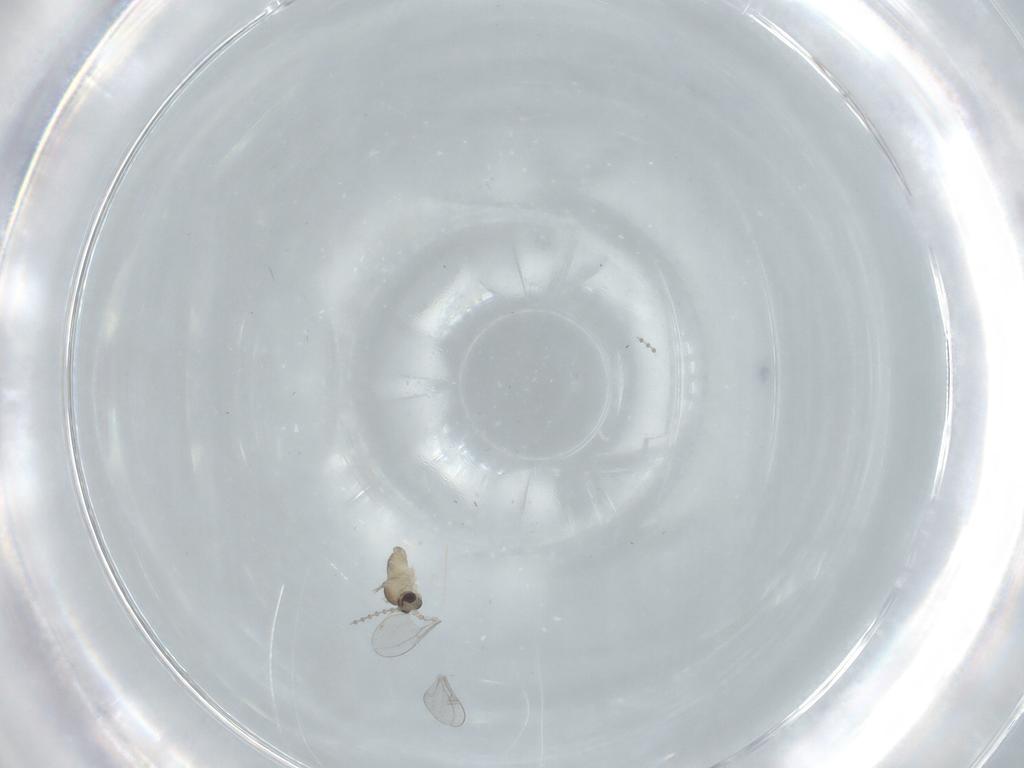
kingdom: Animalia
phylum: Arthropoda
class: Insecta
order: Diptera
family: Cecidomyiidae
